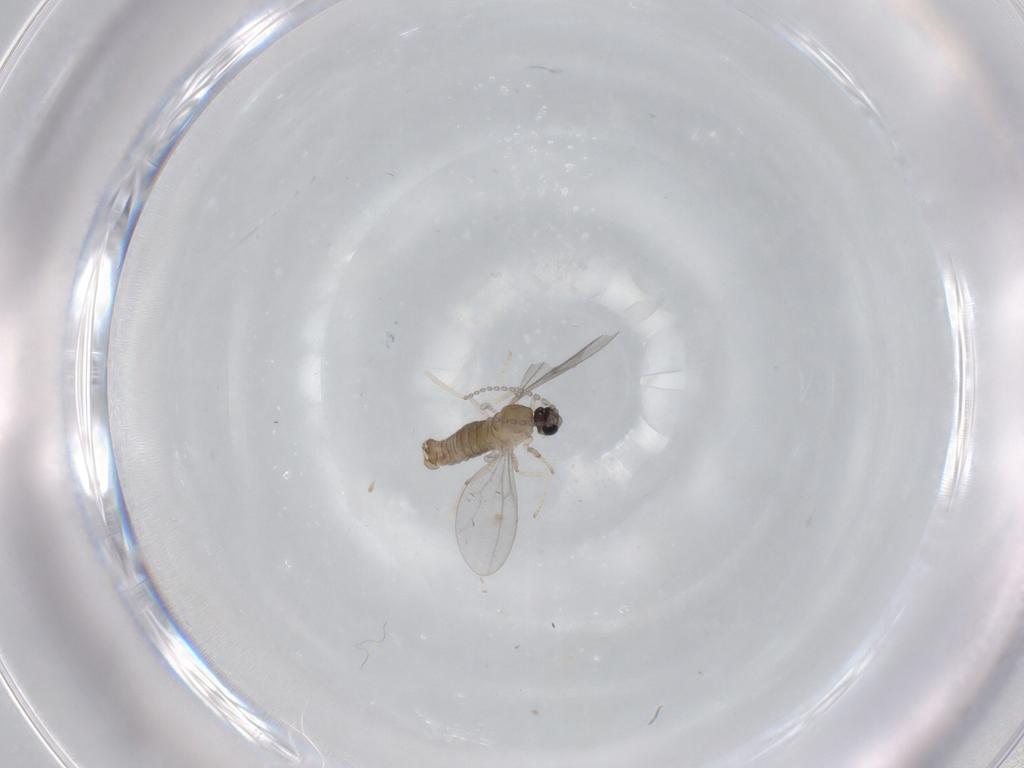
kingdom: Animalia
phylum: Arthropoda
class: Insecta
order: Diptera
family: Cecidomyiidae
